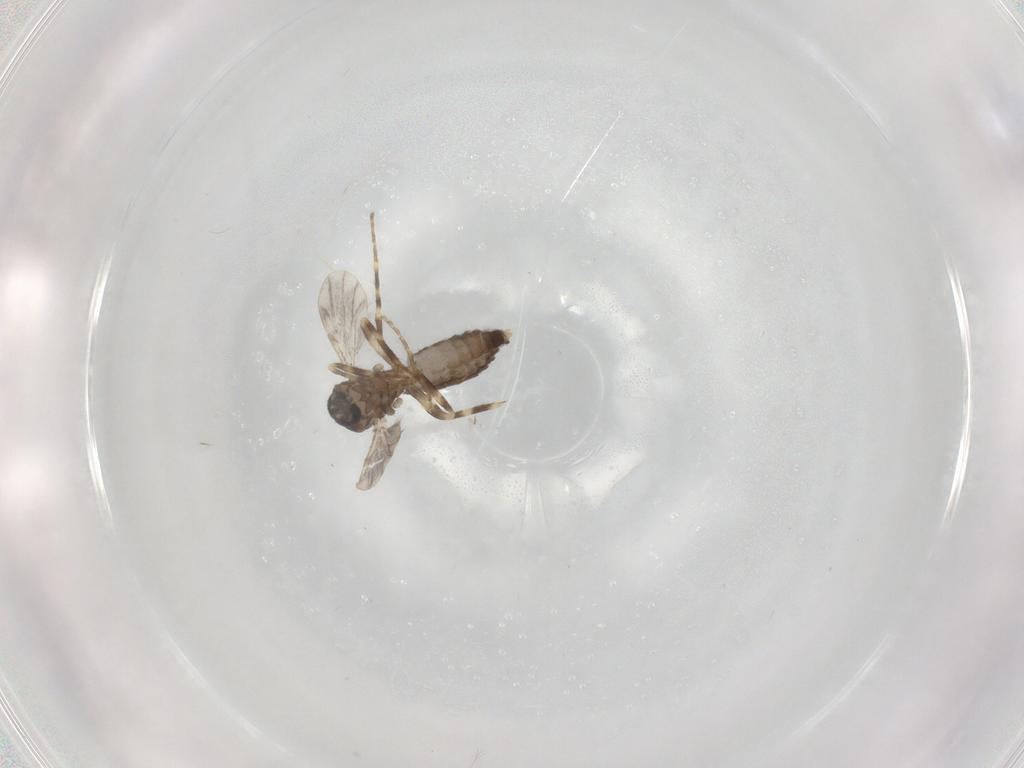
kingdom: Animalia
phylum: Arthropoda
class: Insecta
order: Diptera
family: Ceratopogonidae
